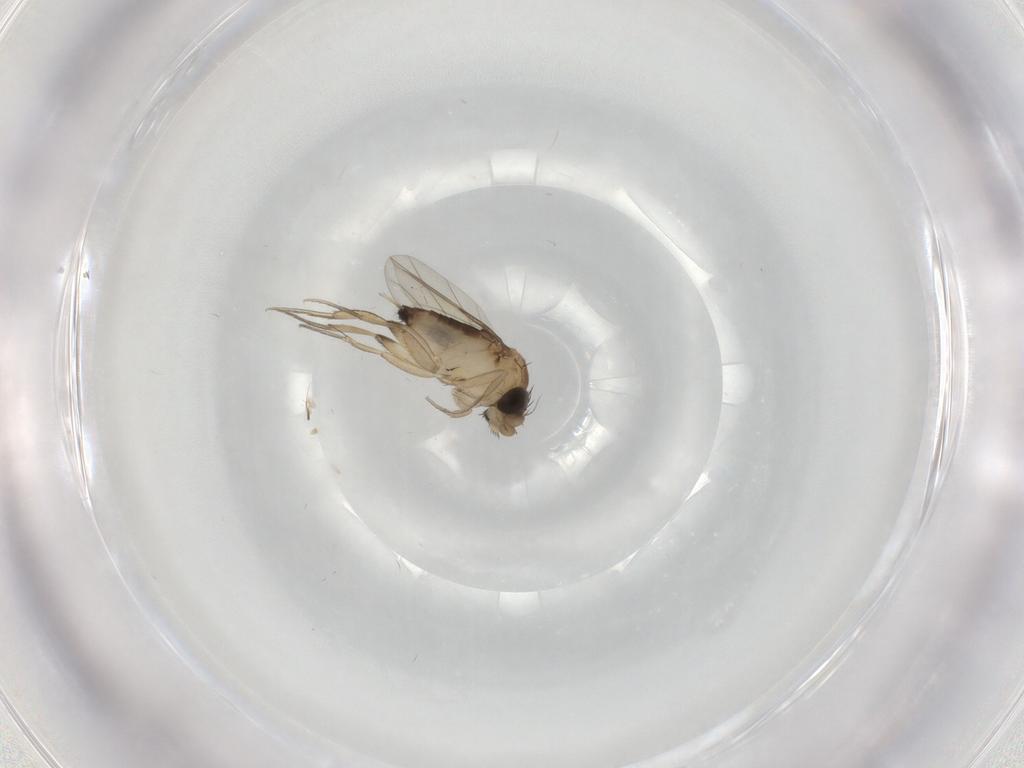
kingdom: Animalia
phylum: Arthropoda
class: Insecta
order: Diptera
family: Phoridae
